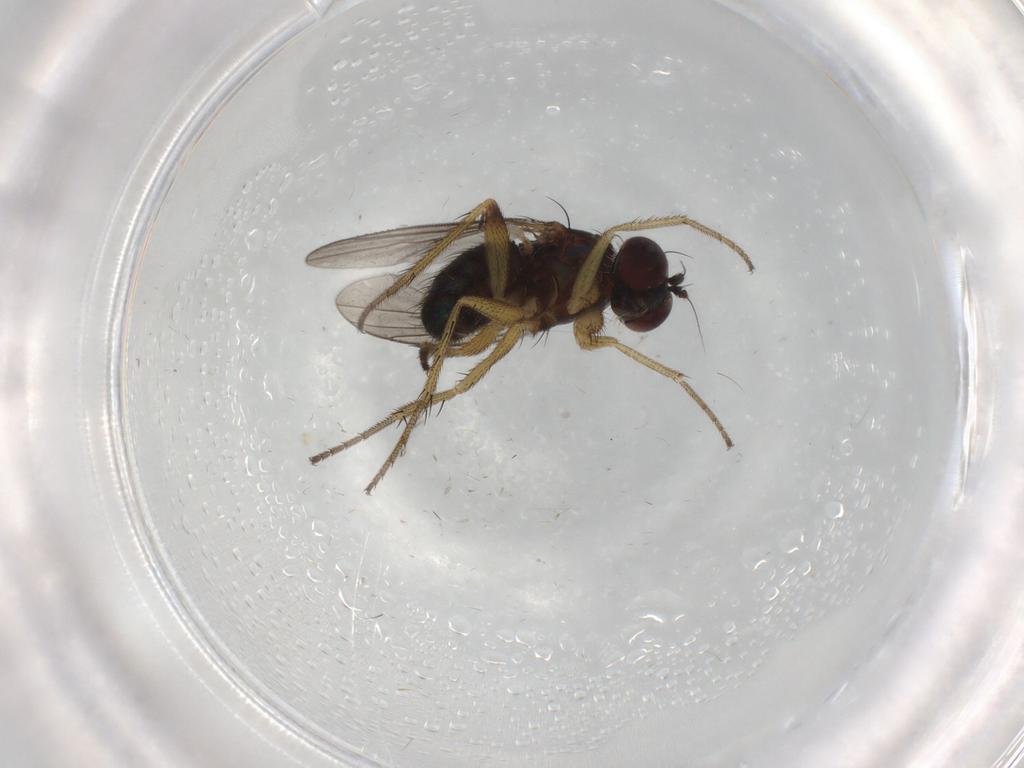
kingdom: Animalia
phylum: Arthropoda
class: Insecta
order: Diptera
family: Dolichopodidae
